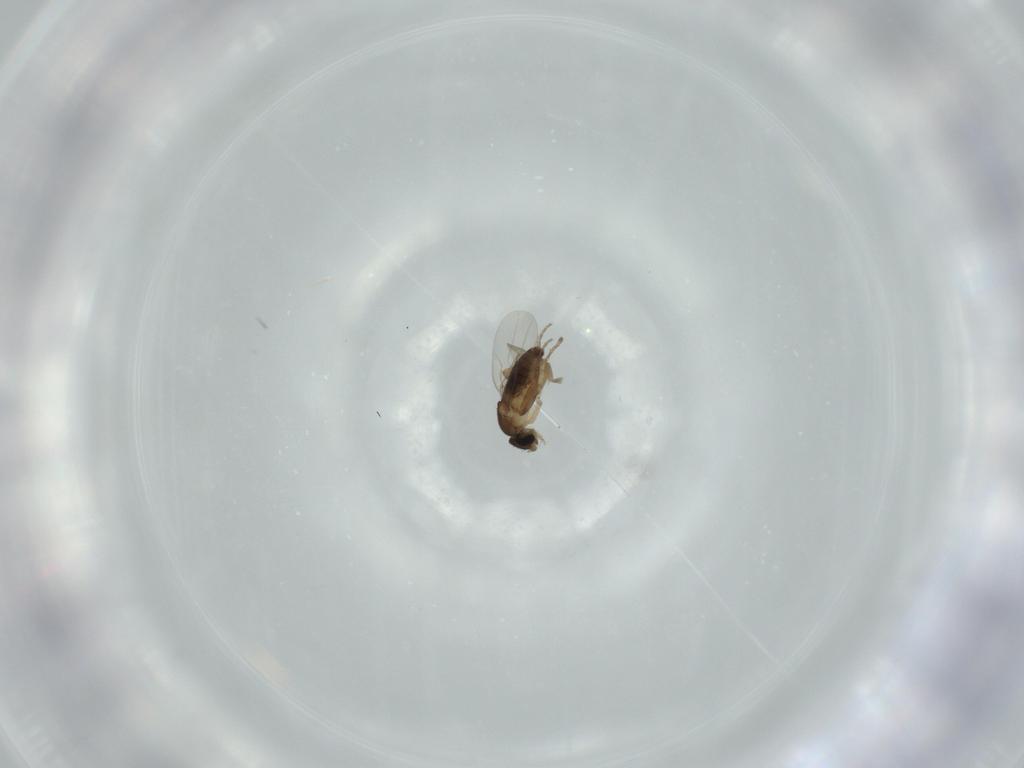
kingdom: Animalia
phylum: Arthropoda
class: Insecta
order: Diptera
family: Phoridae
